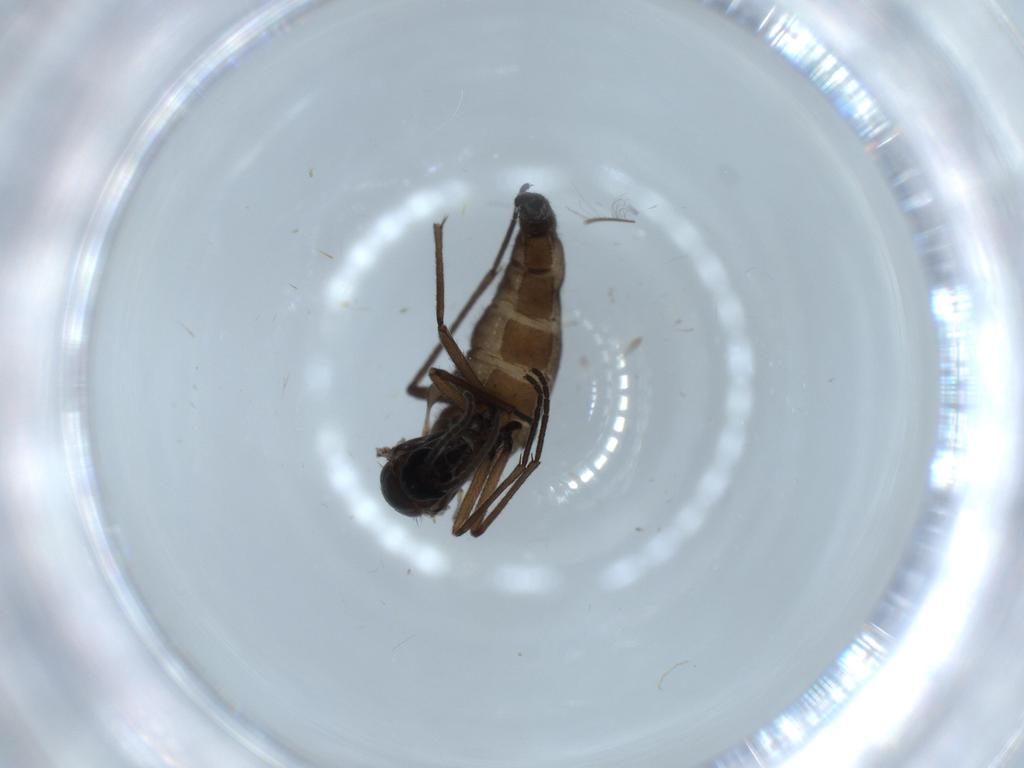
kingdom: Animalia
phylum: Arthropoda
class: Insecta
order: Diptera
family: Sciaridae
